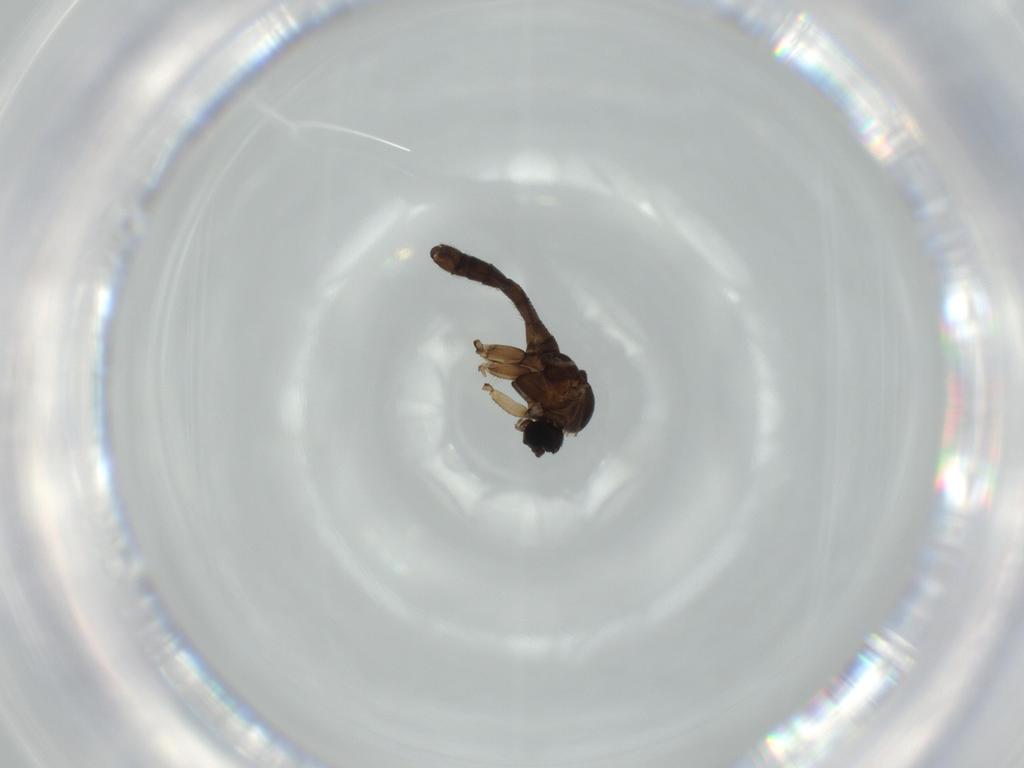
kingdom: Animalia
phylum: Arthropoda
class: Insecta
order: Diptera
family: Sciaridae
